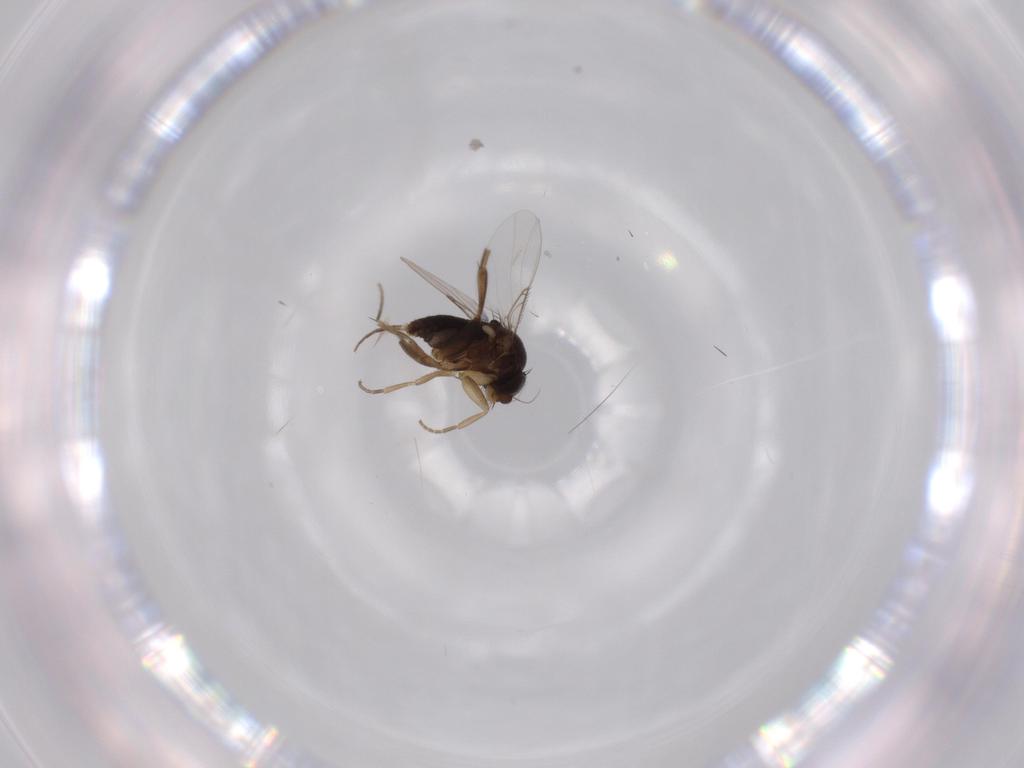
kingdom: Animalia
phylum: Arthropoda
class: Insecta
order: Diptera
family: Phoridae
